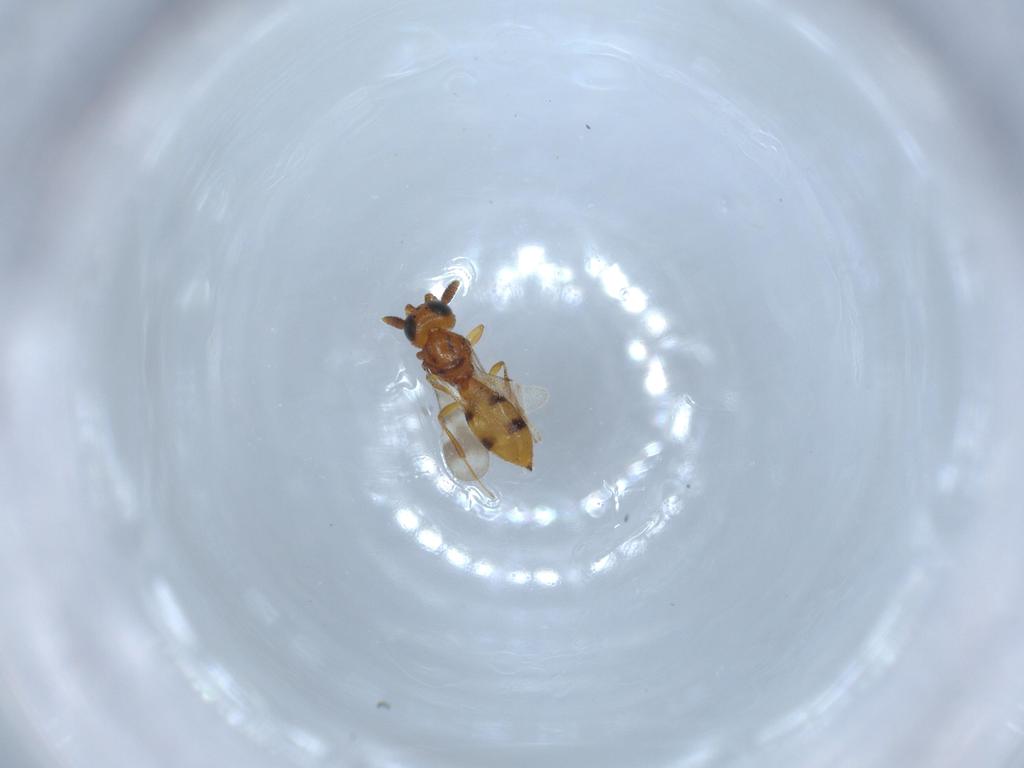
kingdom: Animalia
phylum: Arthropoda
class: Insecta
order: Hymenoptera
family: Scelionidae
